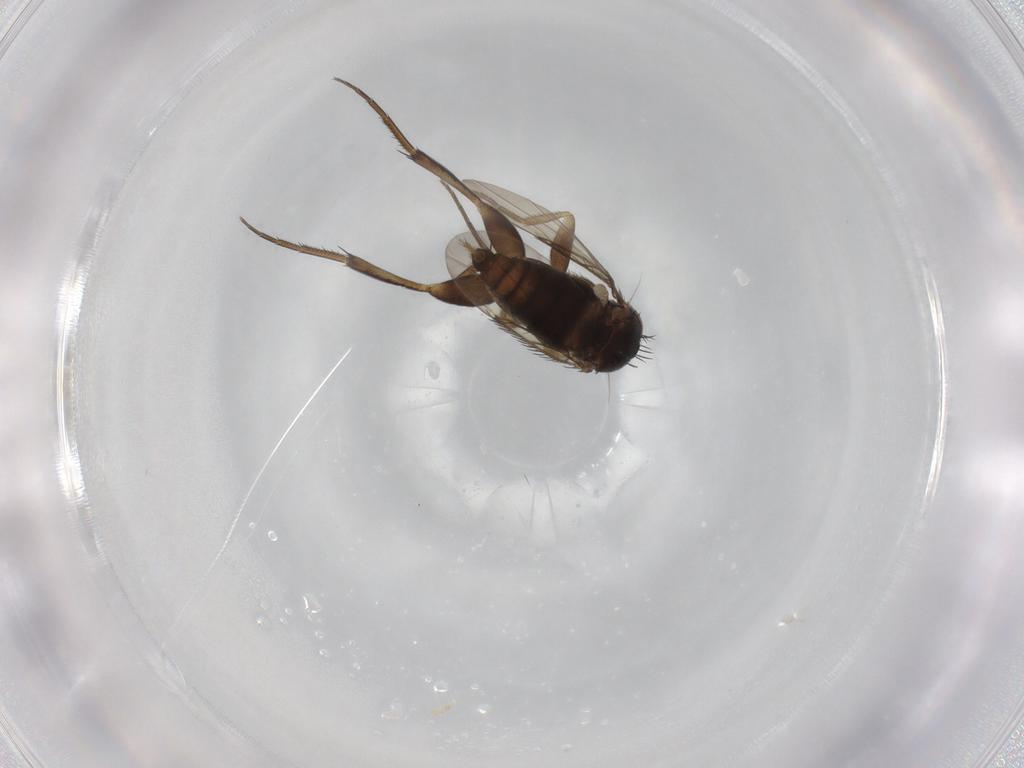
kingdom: Animalia
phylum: Arthropoda
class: Insecta
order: Diptera
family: Phoridae
